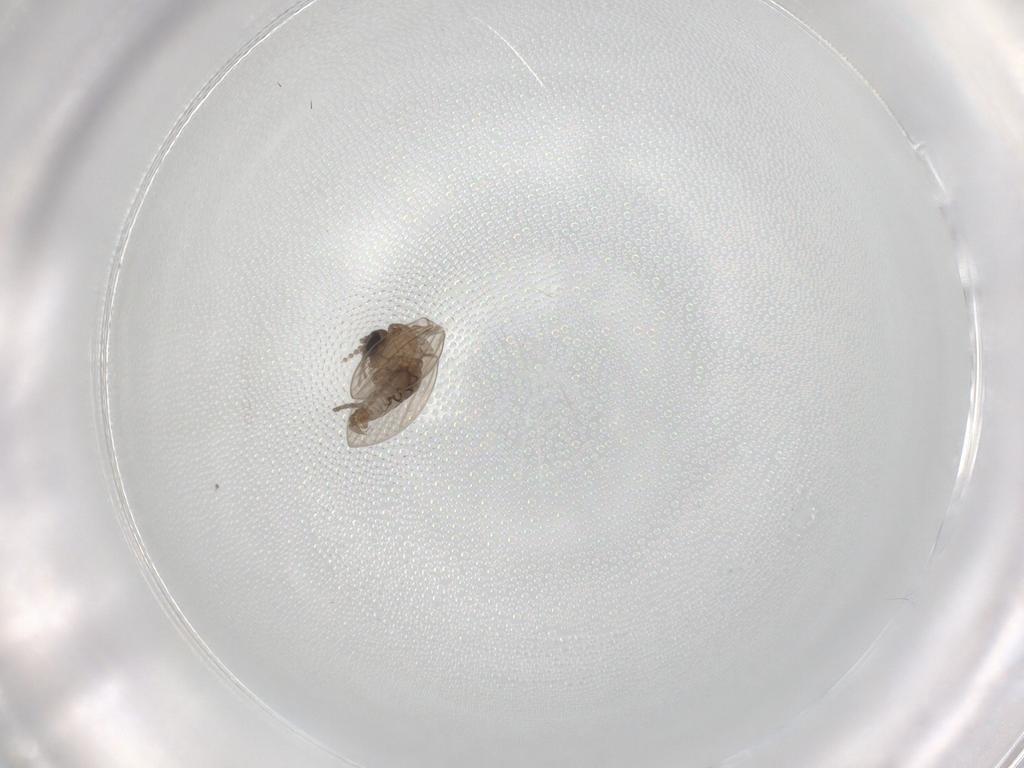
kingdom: Animalia
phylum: Arthropoda
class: Insecta
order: Diptera
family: Psychodidae
